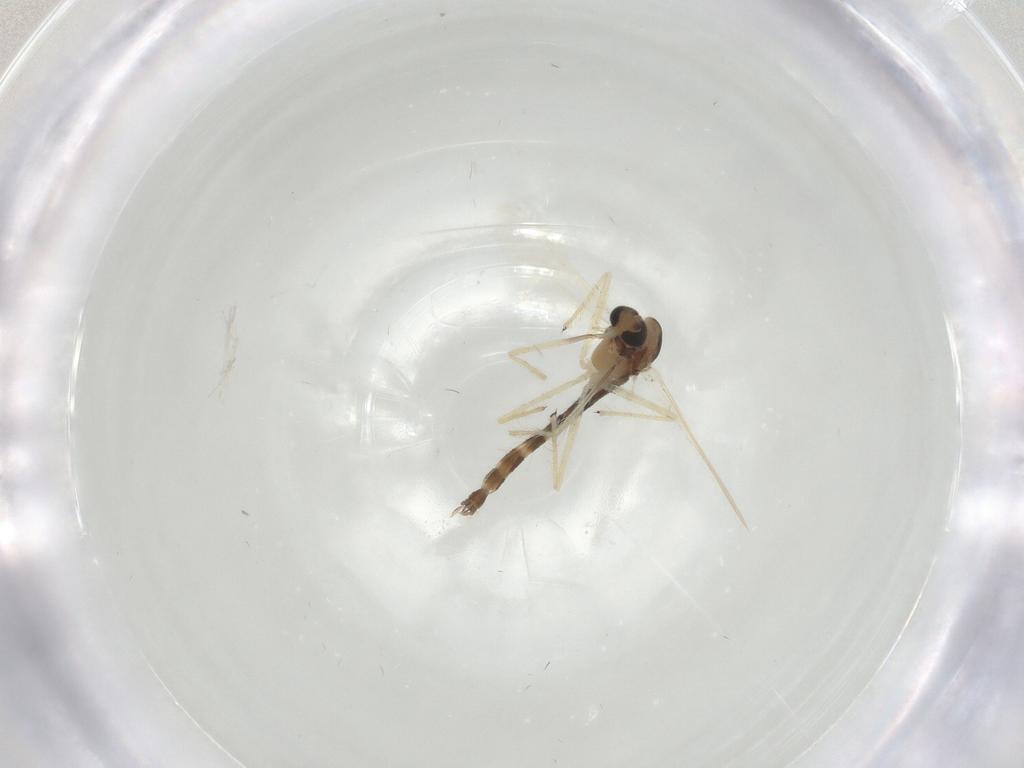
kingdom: Animalia
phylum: Arthropoda
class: Insecta
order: Diptera
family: Chironomidae
